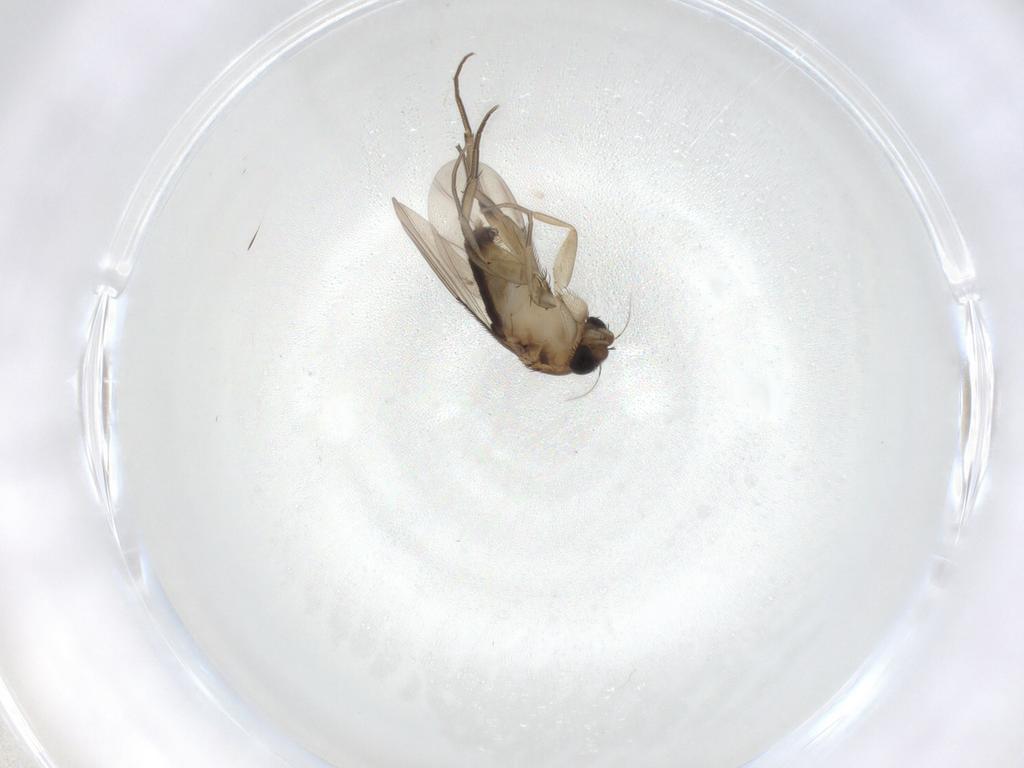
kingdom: Animalia
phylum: Arthropoda
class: Insecta
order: Diptera
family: Phoridae
